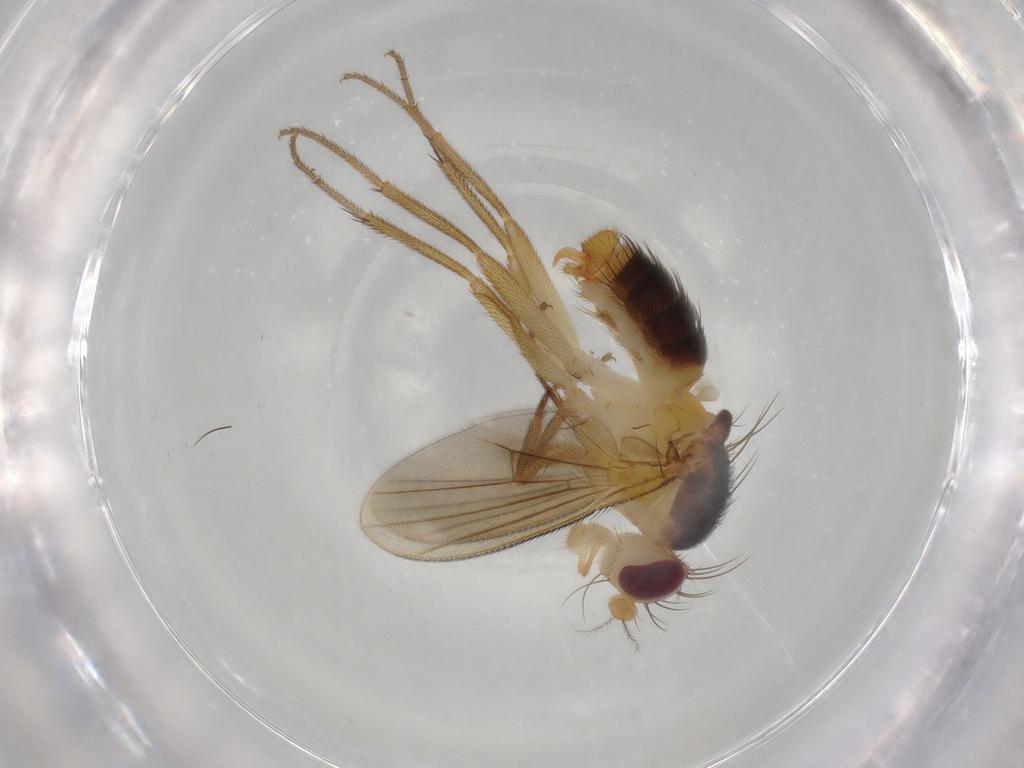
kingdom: Animalia
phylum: Arthropoda
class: Insecta
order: Diptera
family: Clusiidae
